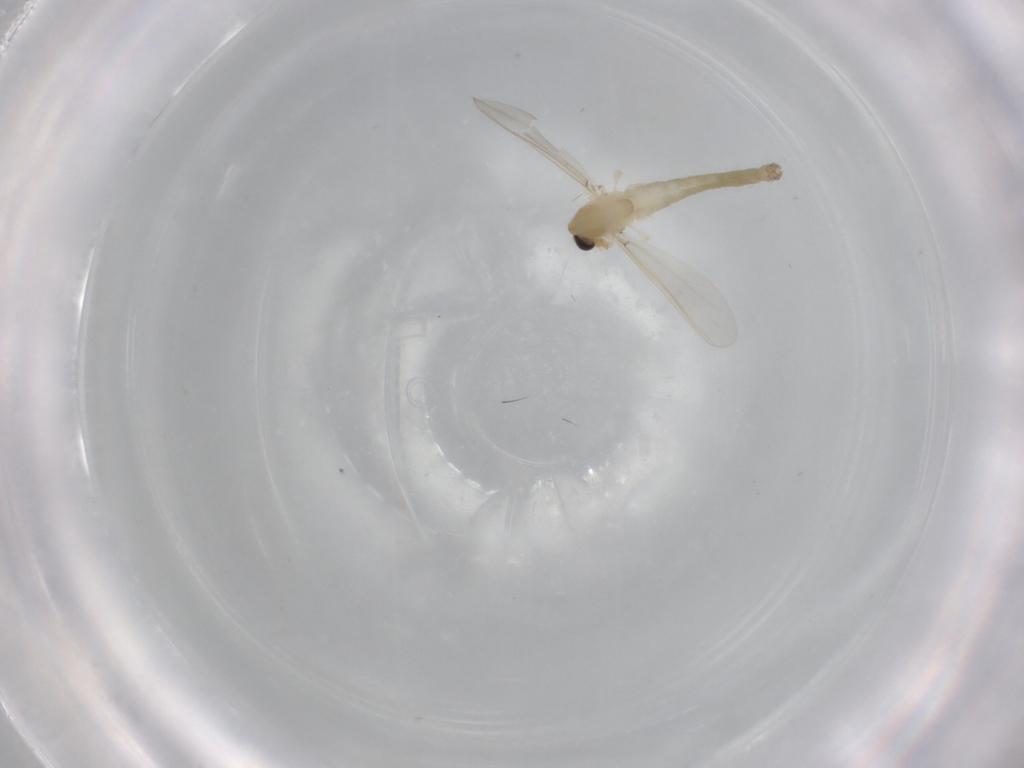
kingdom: Animalia
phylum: Arthropoda
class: Insecta
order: Diptera
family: Chironomidae
